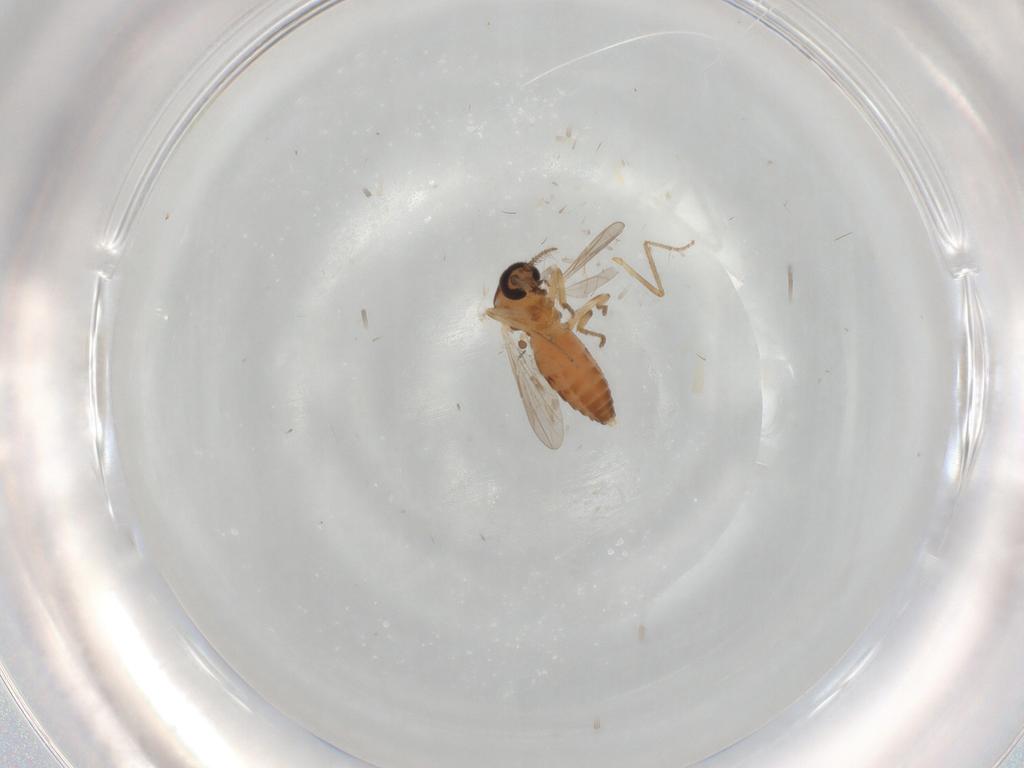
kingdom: Animalia
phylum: Arthropoda
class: Insecta
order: Diptera
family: Ceratopogonidae
